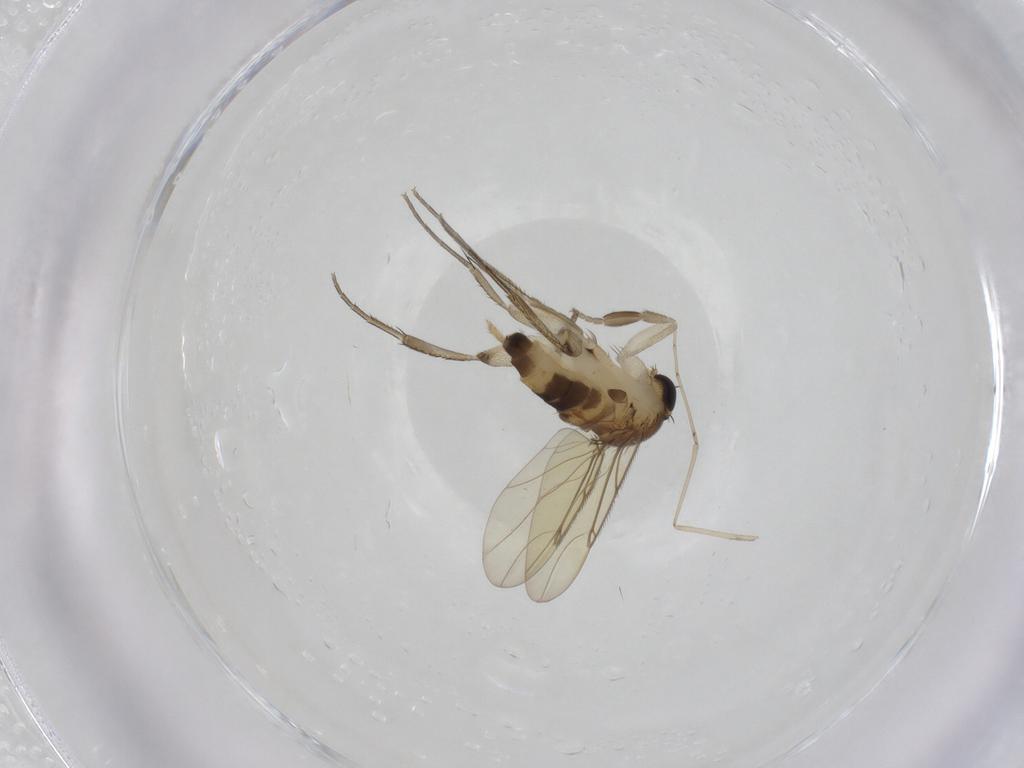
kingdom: Animalia
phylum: Arthropoda
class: Insecta
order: Diptera
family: Phoridae
